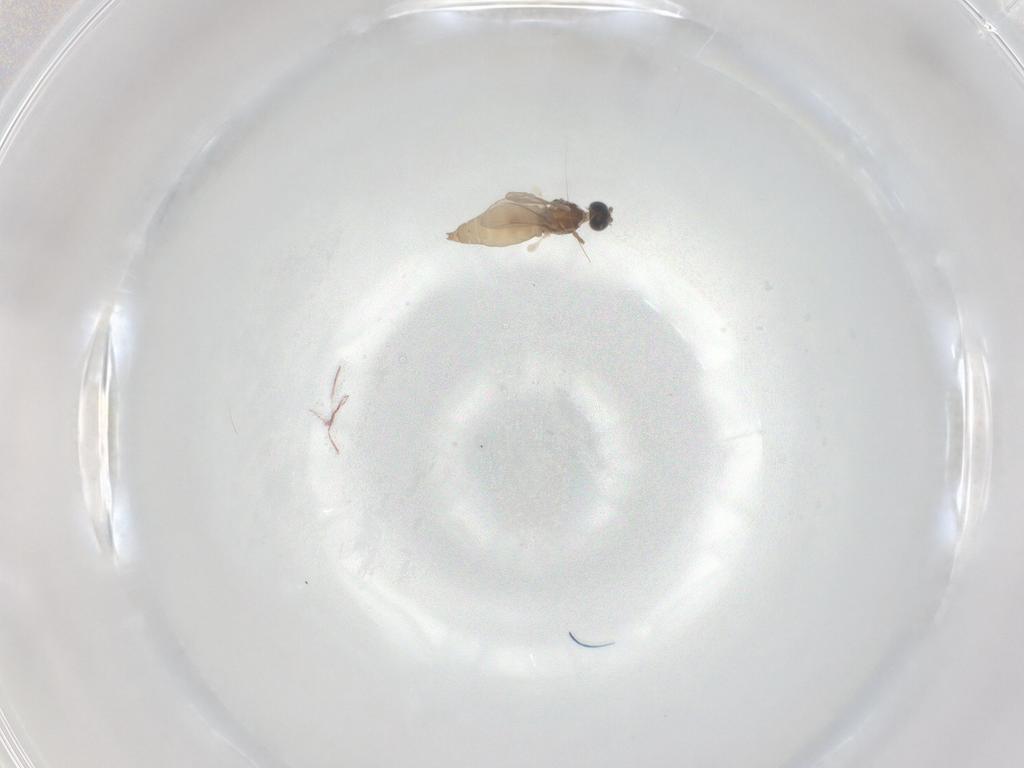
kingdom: Animalia
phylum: Arthropoda
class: Insecta
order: Diptera
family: Cecidomyiidae
